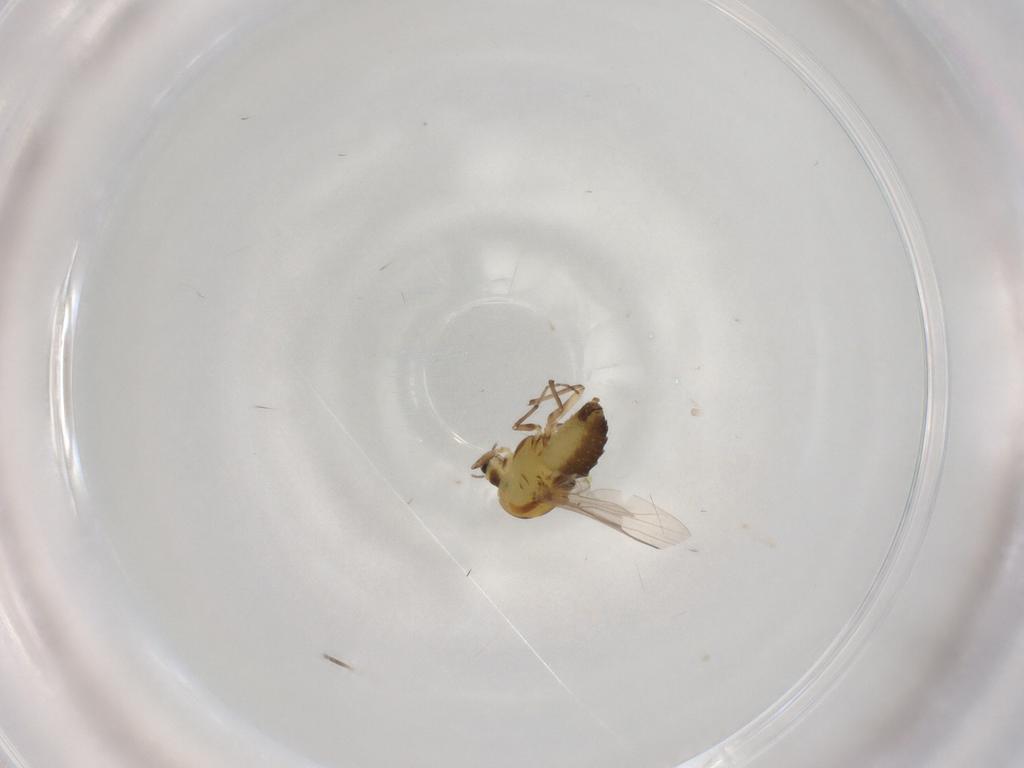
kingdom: Animalia
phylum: Arthropoda
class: Insecta
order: Diptera
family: Chironomidae
